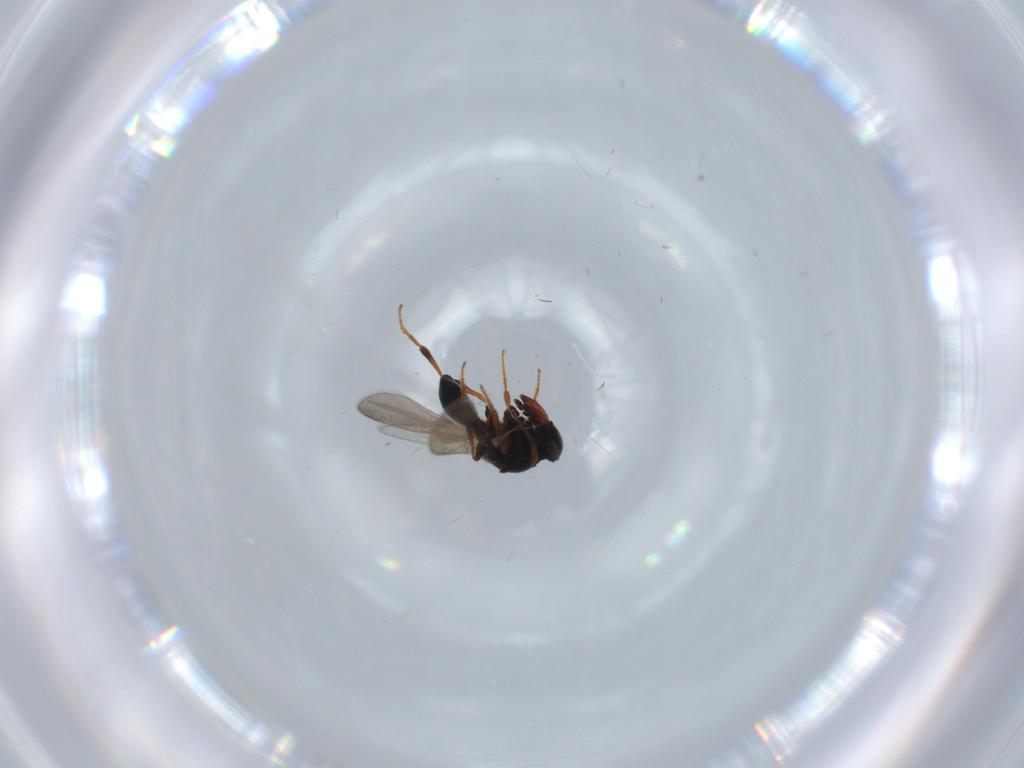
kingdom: Animalia
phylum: Arthropoda
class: Insecta
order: Hymenoptera
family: Platygastridae
